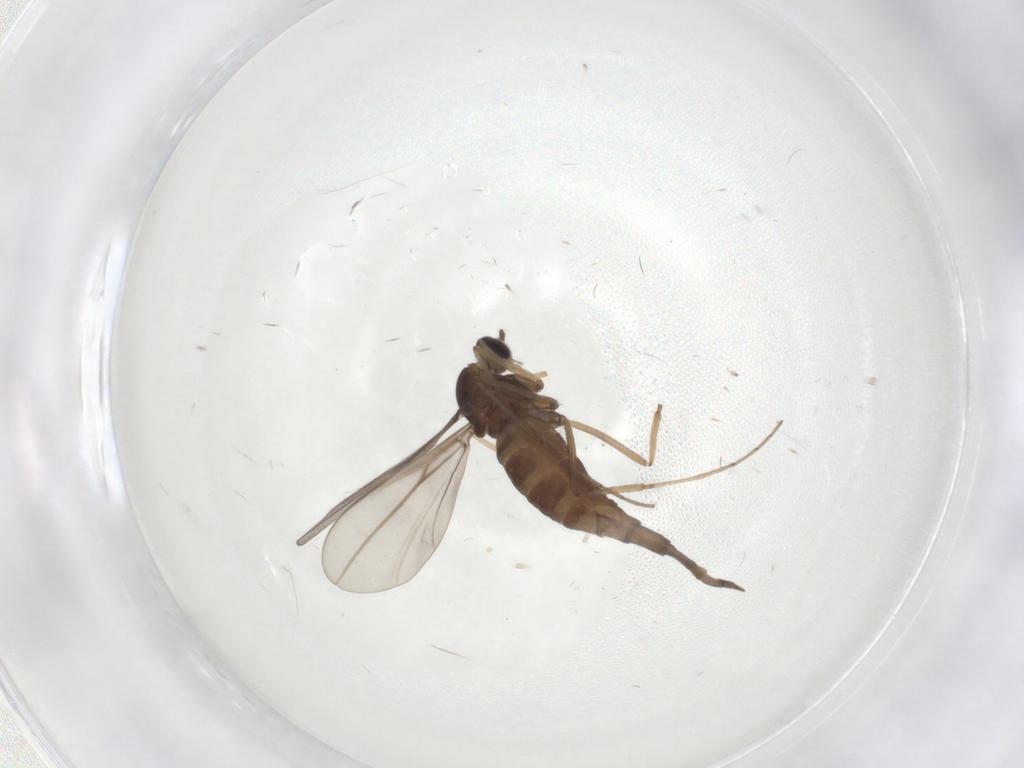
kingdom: Animalia
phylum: Arthropoda
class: Insecta
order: Diptera
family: Cecidomyiidae
